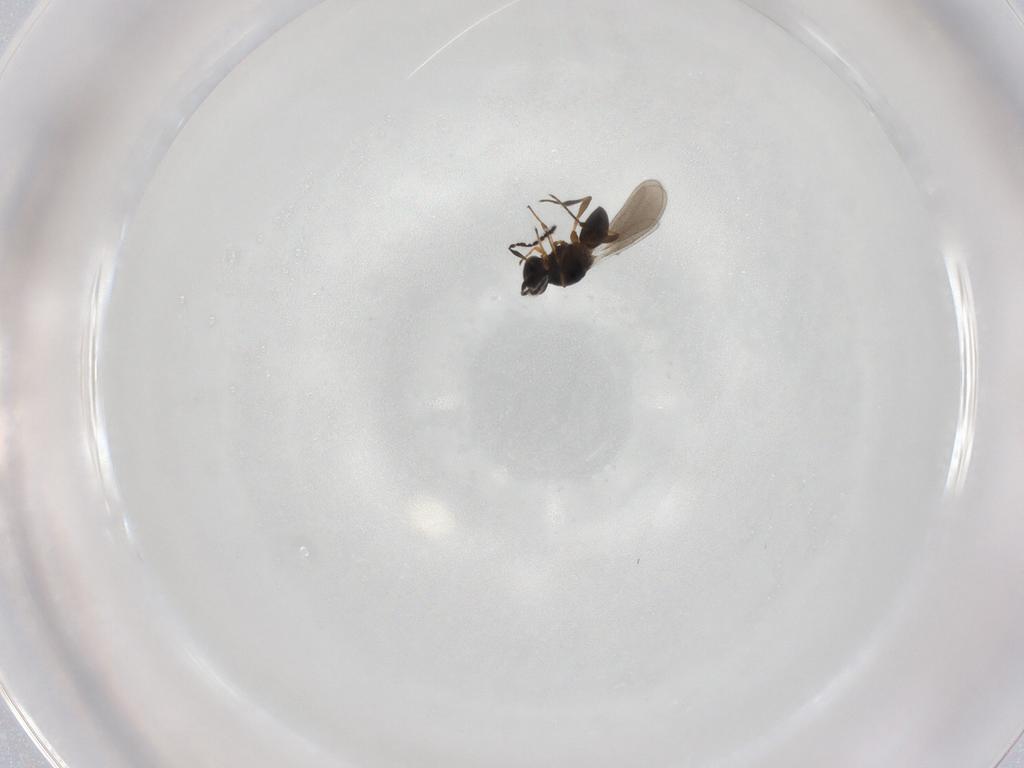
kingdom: Animalia
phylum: Arthropoda
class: Insecta
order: Hymenoptera
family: Platygastridae
